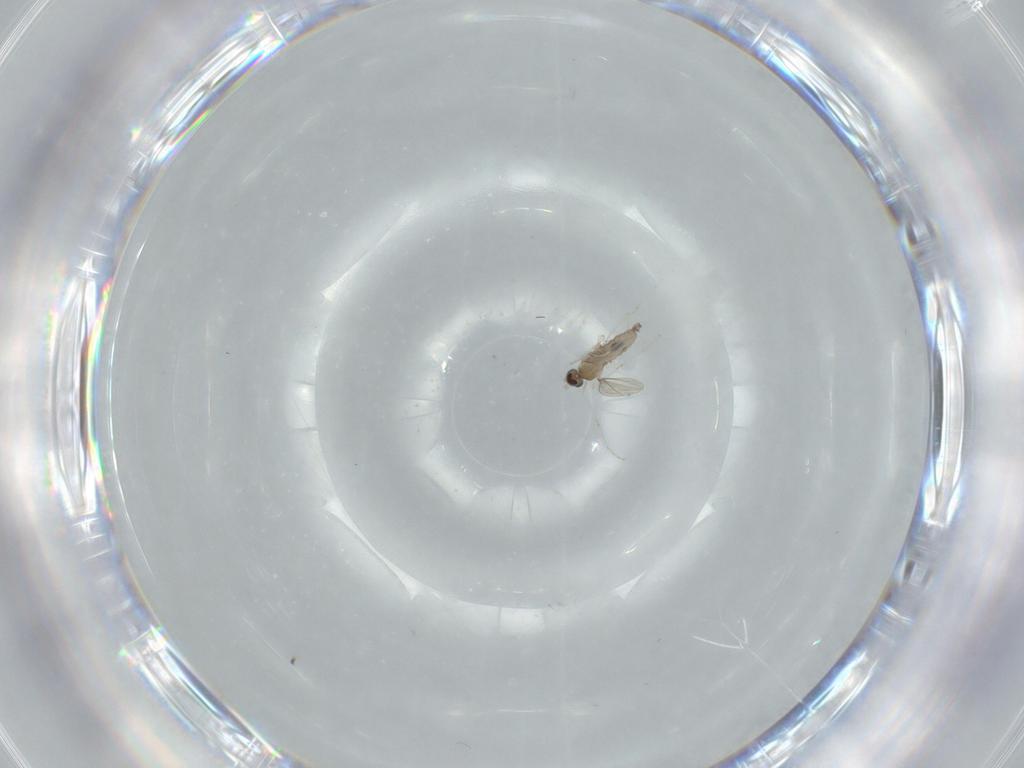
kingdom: Animalia
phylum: Arthropoda
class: Insecta
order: Diptera
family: Cecidomyiidae
